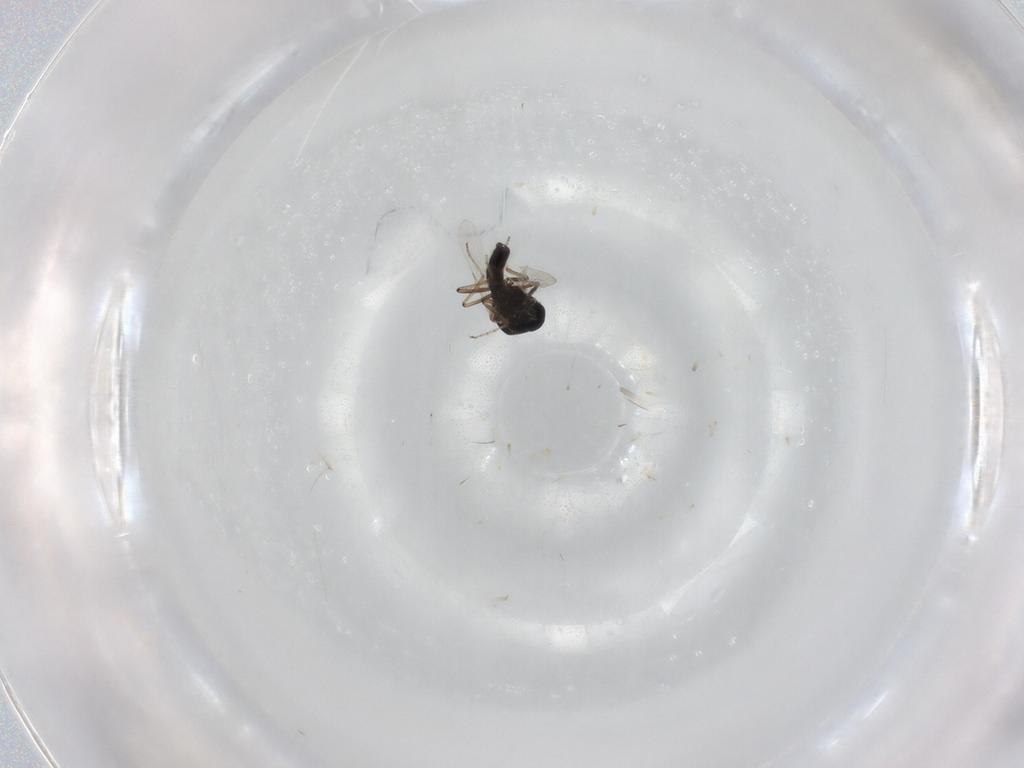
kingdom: Animalia
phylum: Arthropoda
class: Insecta
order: Diptera
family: Ceratopogonidae
